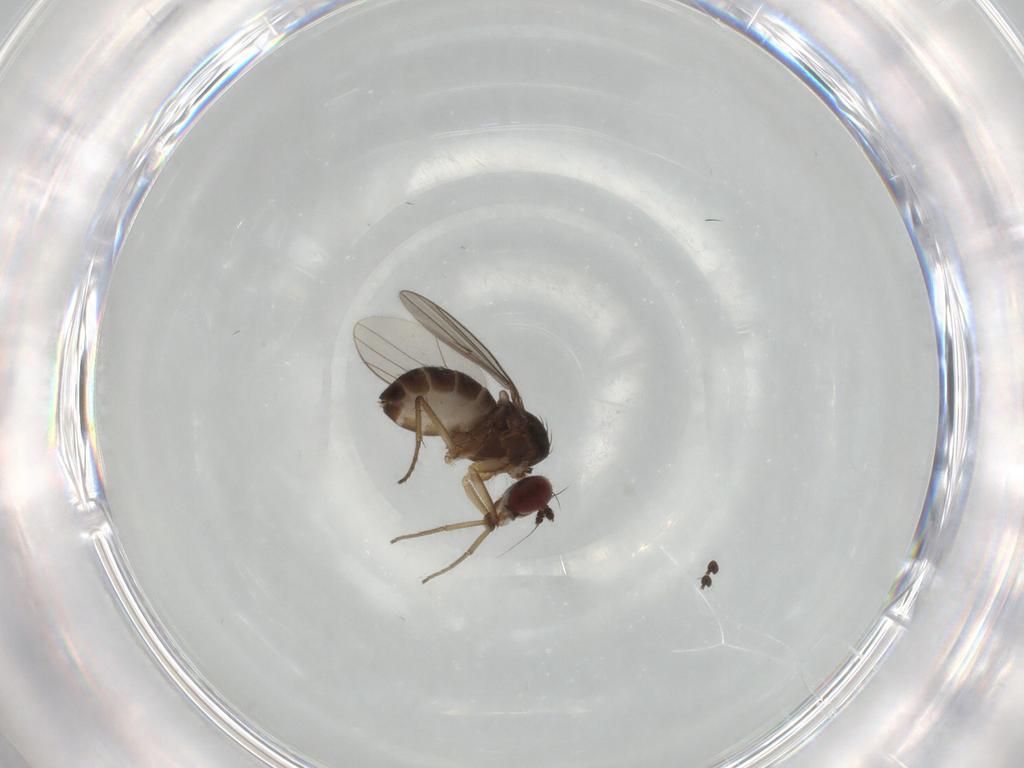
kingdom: Animalia
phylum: Arthropoda
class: Insecta
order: Diptera
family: Dolichopodidae
